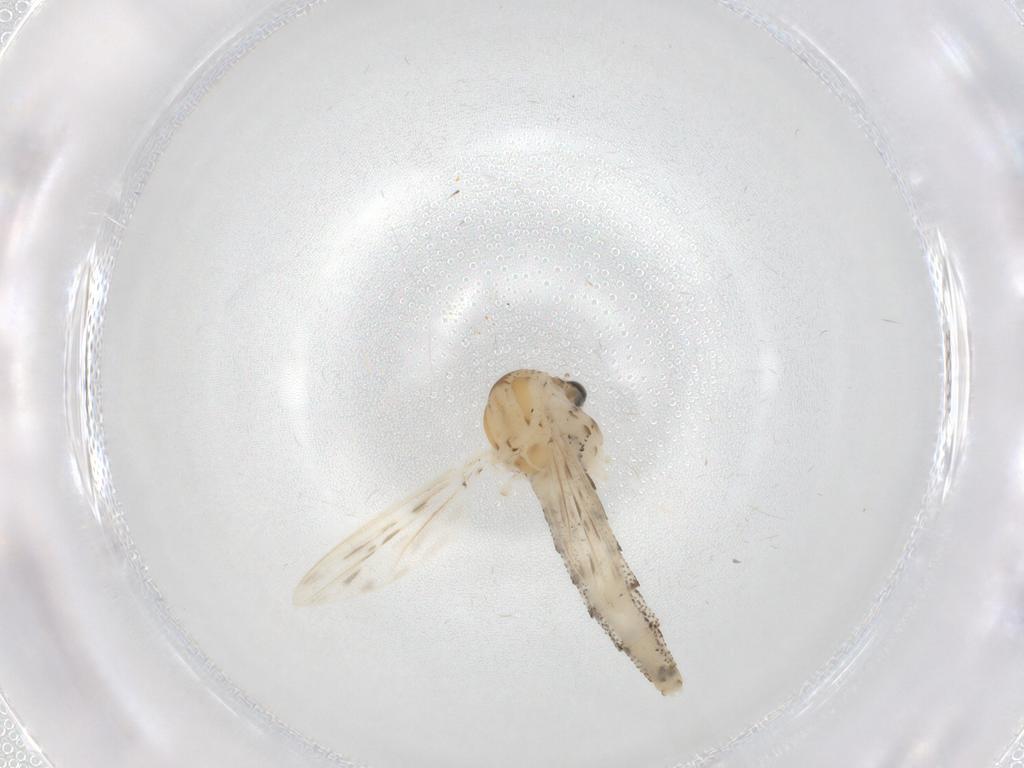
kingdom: Animalia
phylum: Arthropoda
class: Insecta
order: Diptera
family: Chaoboridae
